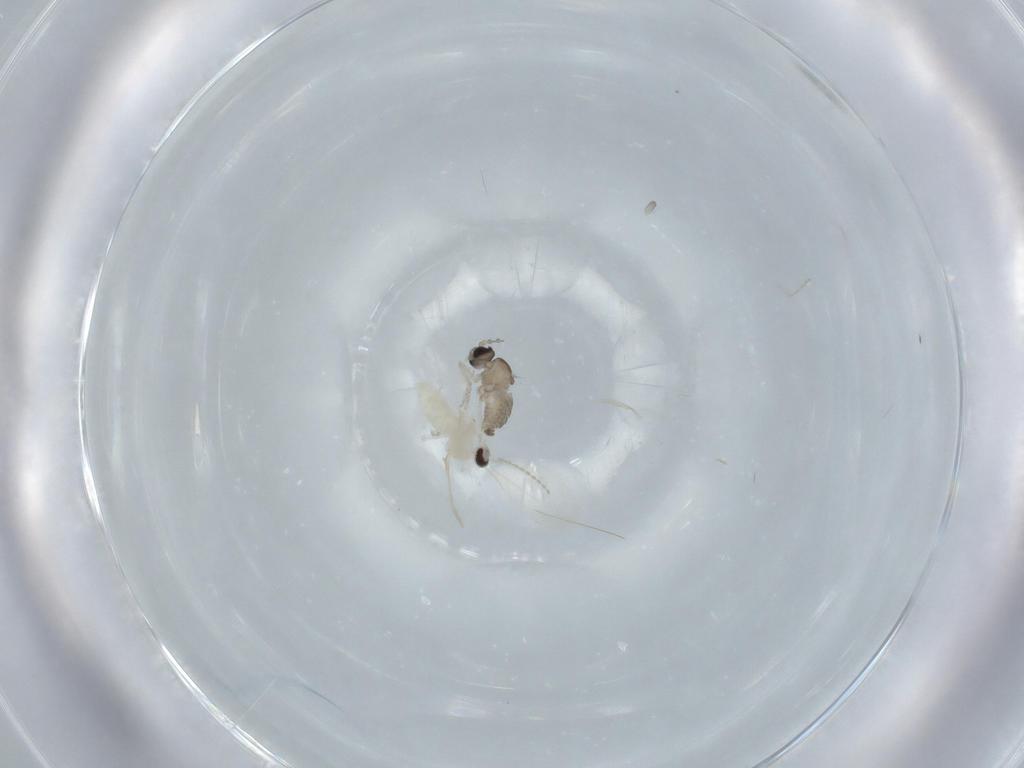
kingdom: Animalia
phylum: Arthropoda
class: Insecta
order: Diptera
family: Cecidomyiidae
